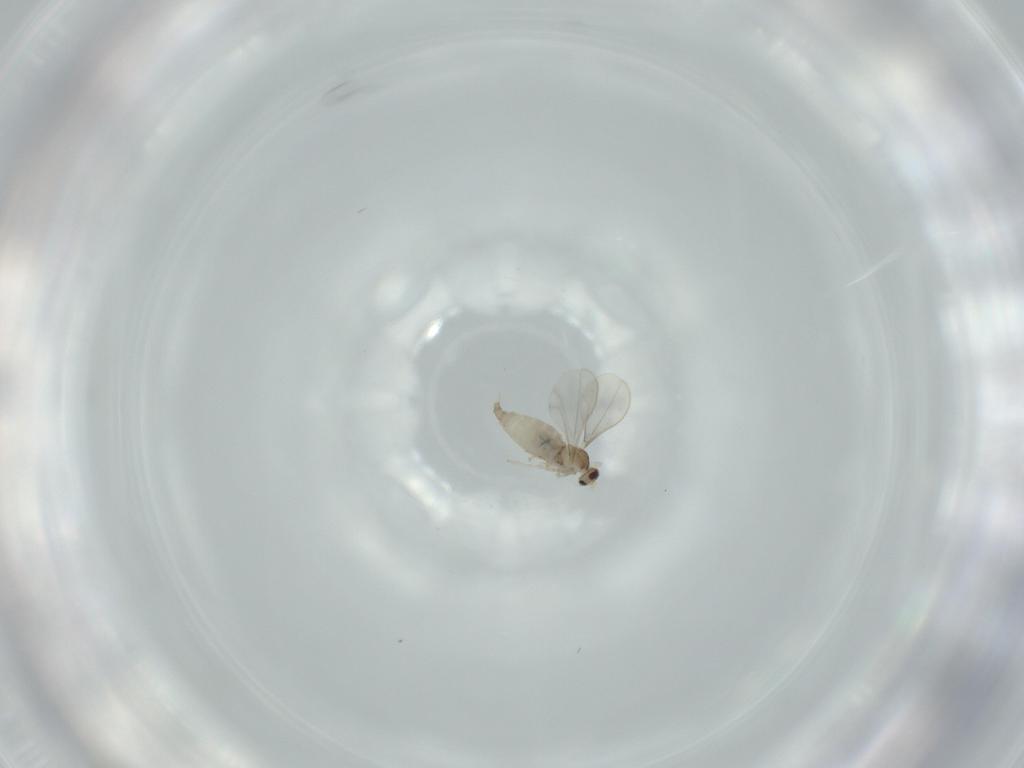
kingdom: Animalia
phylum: Arthropoda
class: Insecta
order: Diptera
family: Cecidomyiidae
